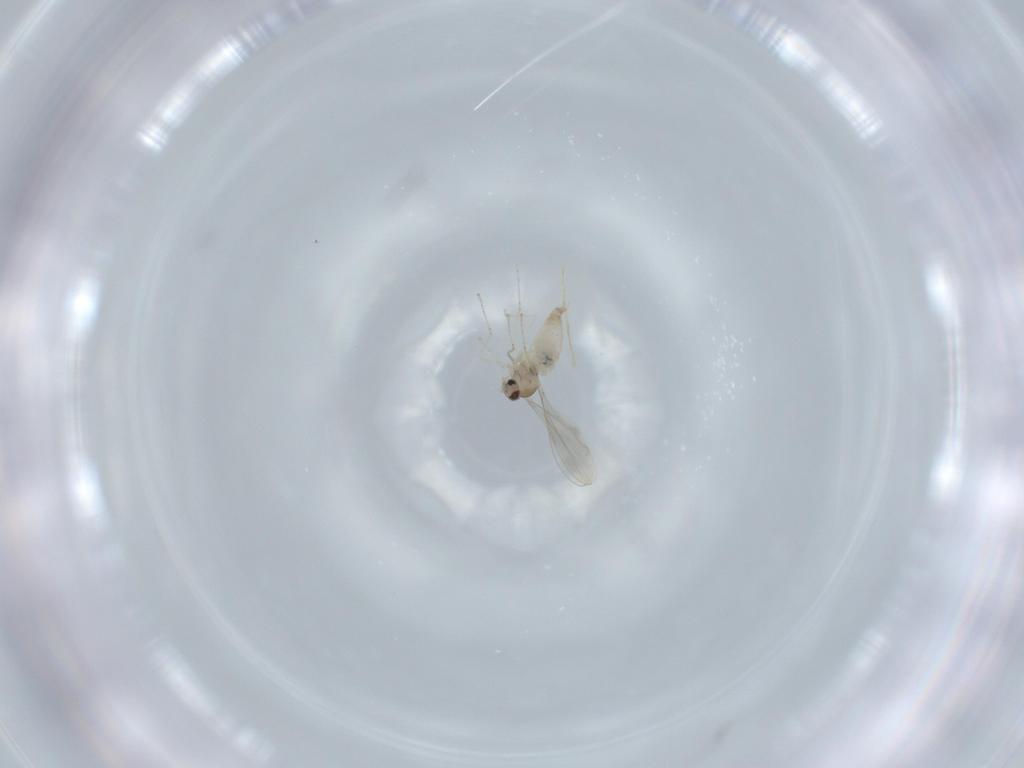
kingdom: Animalia
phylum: Arthropoda
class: Insecta
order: Diptera
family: Cecidomyiidae
